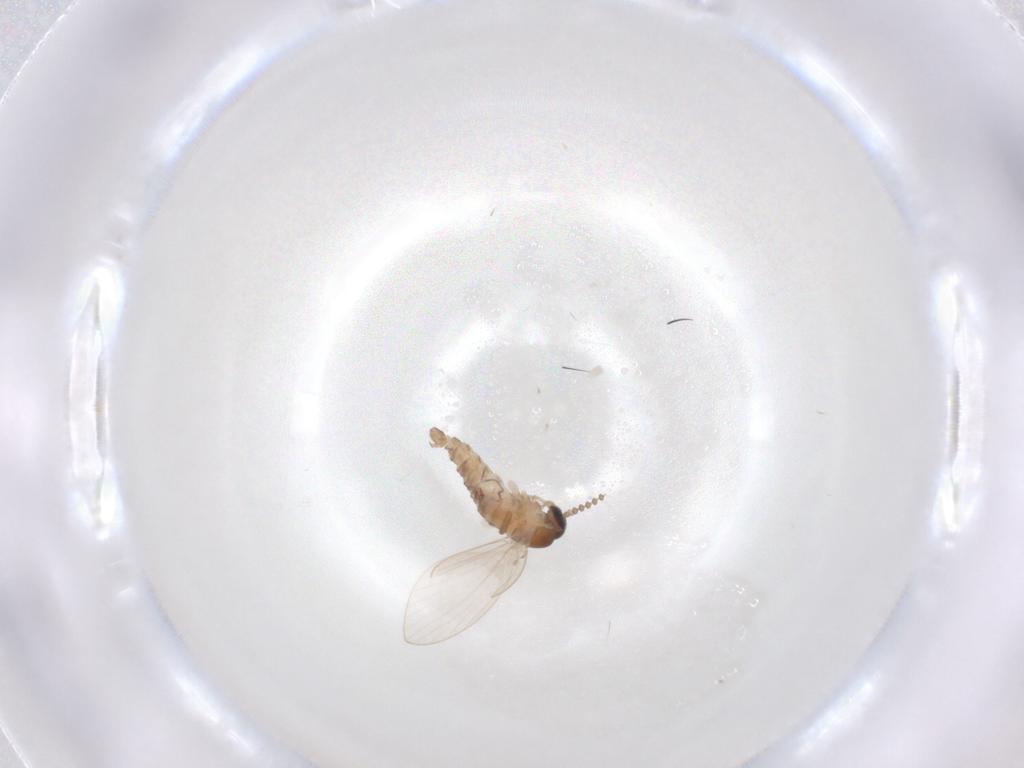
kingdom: Animalia
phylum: Arthropoda
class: Insecta
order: Diptera
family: Psychodidae
